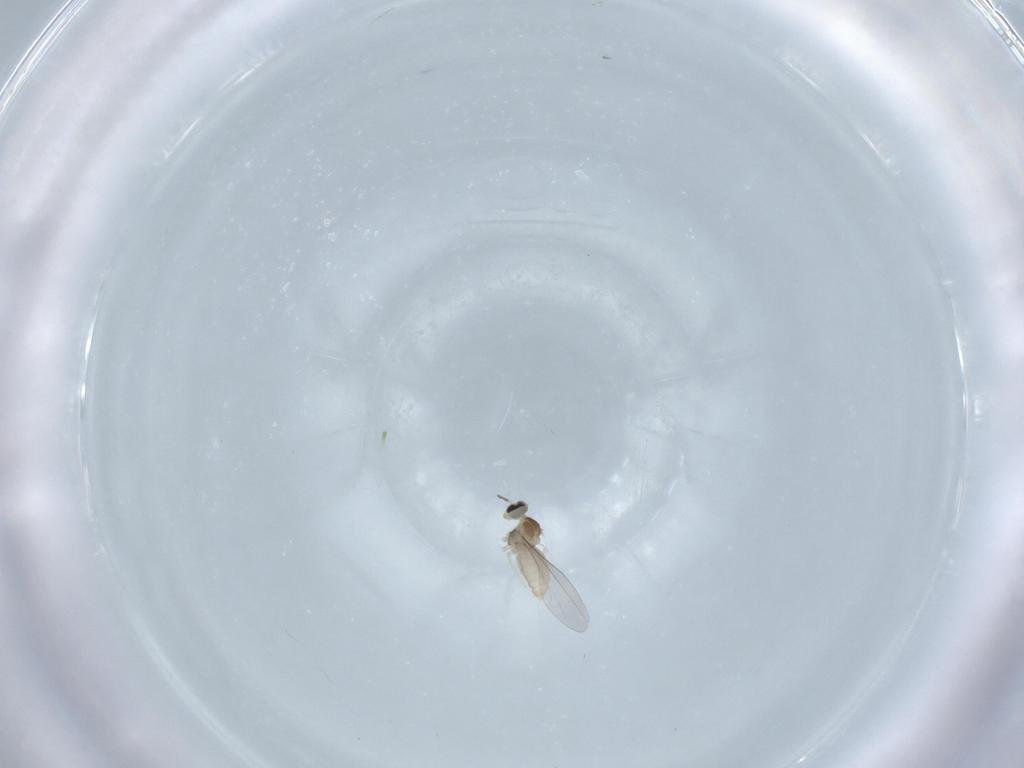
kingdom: Animalia
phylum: Arthropoda
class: Insecta
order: Diptera
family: Cecidomyiidae
